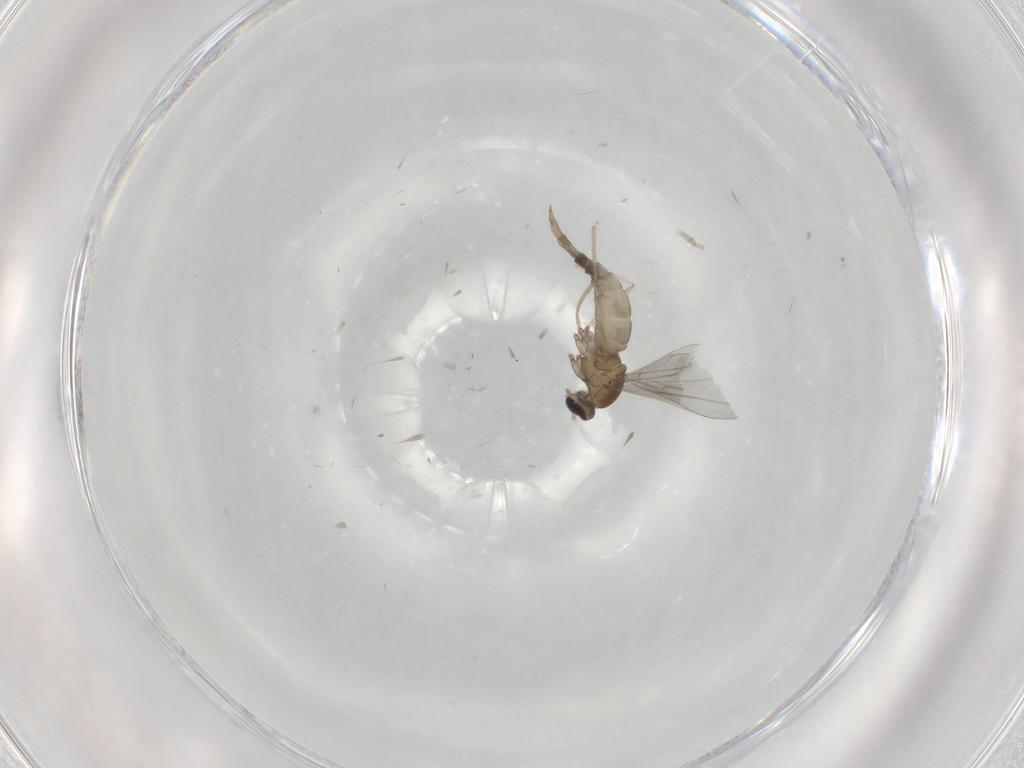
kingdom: Animalia
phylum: Arthropoda
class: Insecta
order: Diptera
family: Cecidomyiidae
